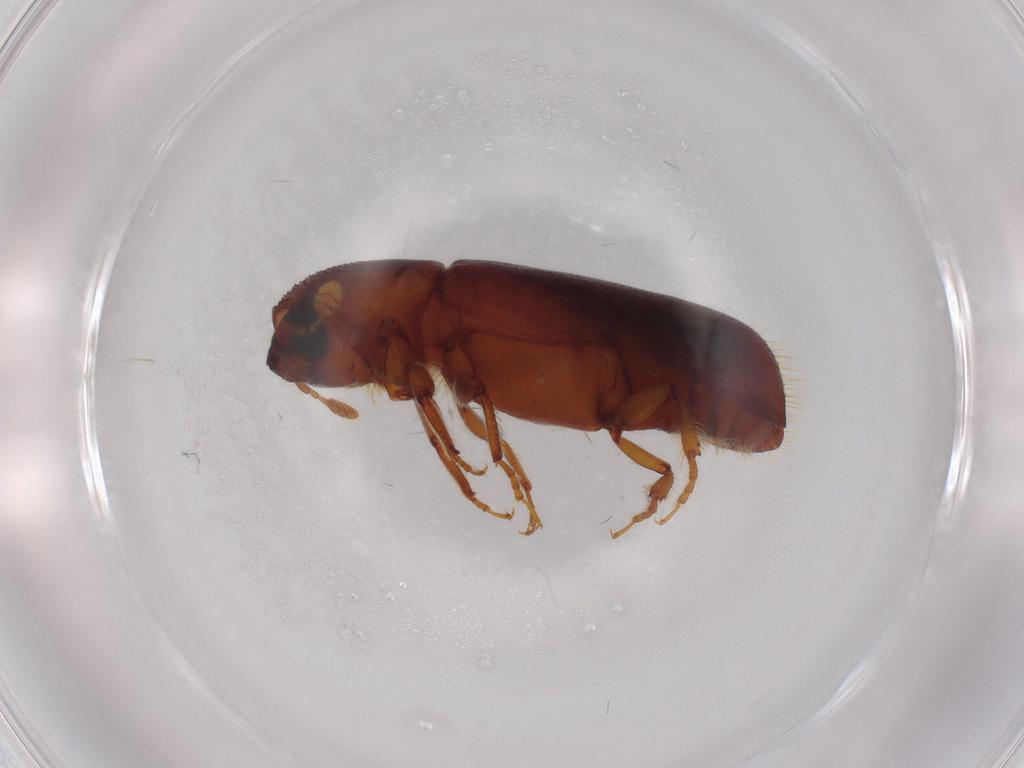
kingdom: Animalia
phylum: Arthropoda
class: Insecta
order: Coleoptera
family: Curculionidae
